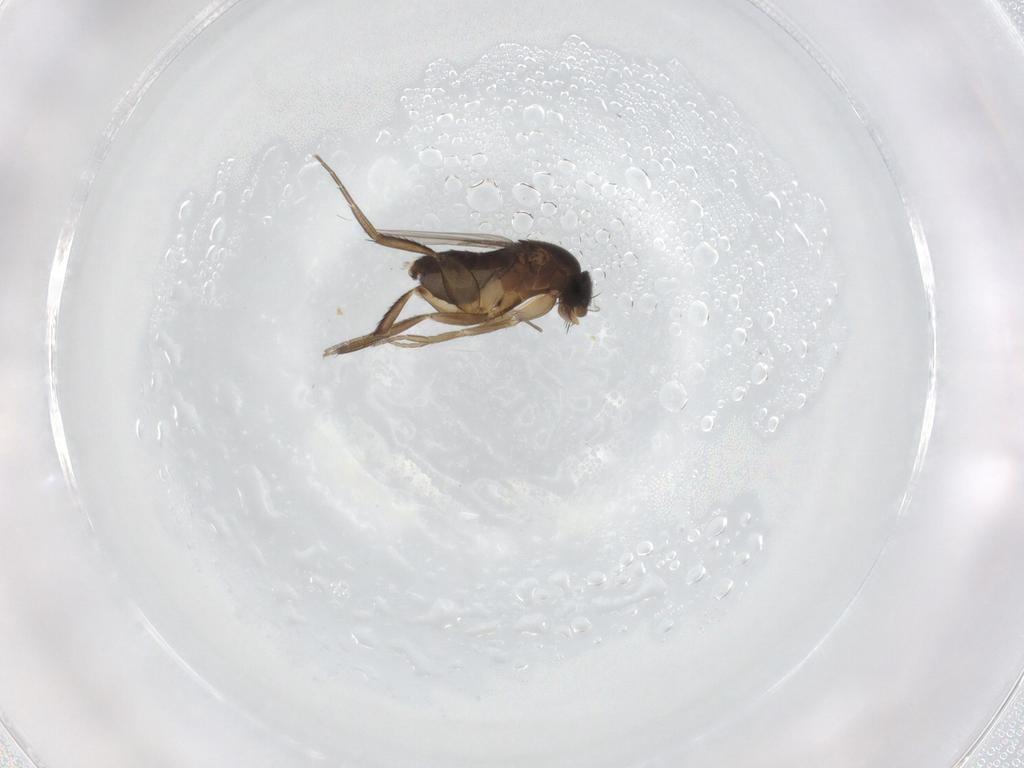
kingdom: Animalia
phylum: Arthropoda
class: Insecta
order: Diptera
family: Phoridae
